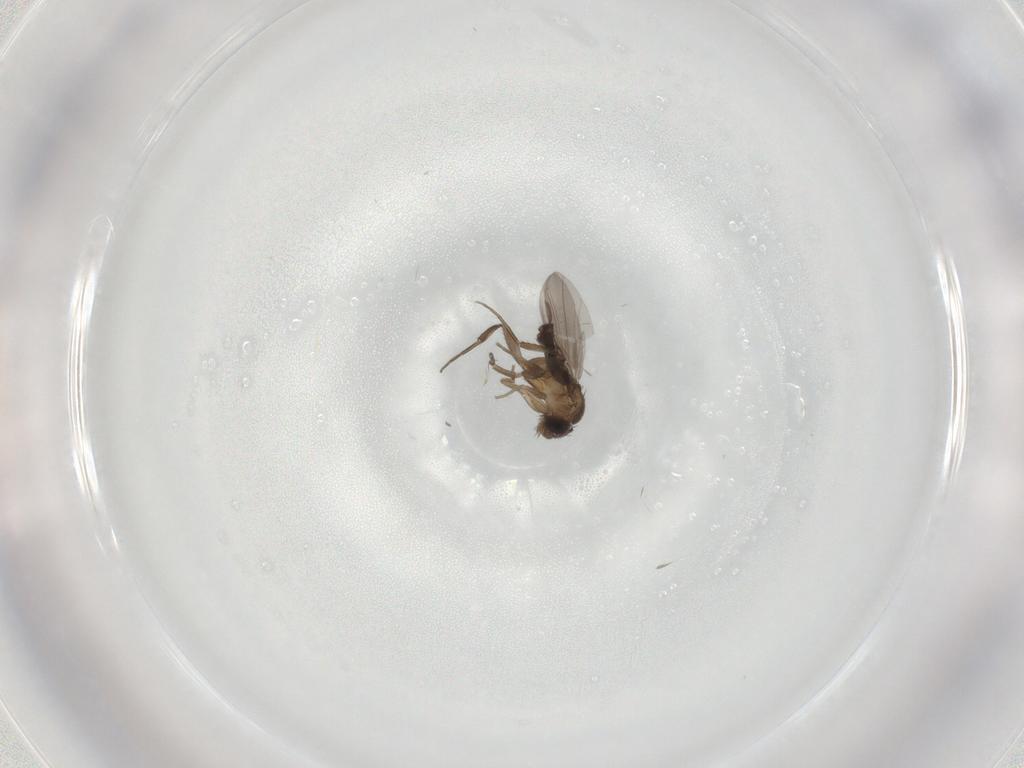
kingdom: Animalia
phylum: Arthropoda
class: Insecta
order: Diptera
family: Phoridae
